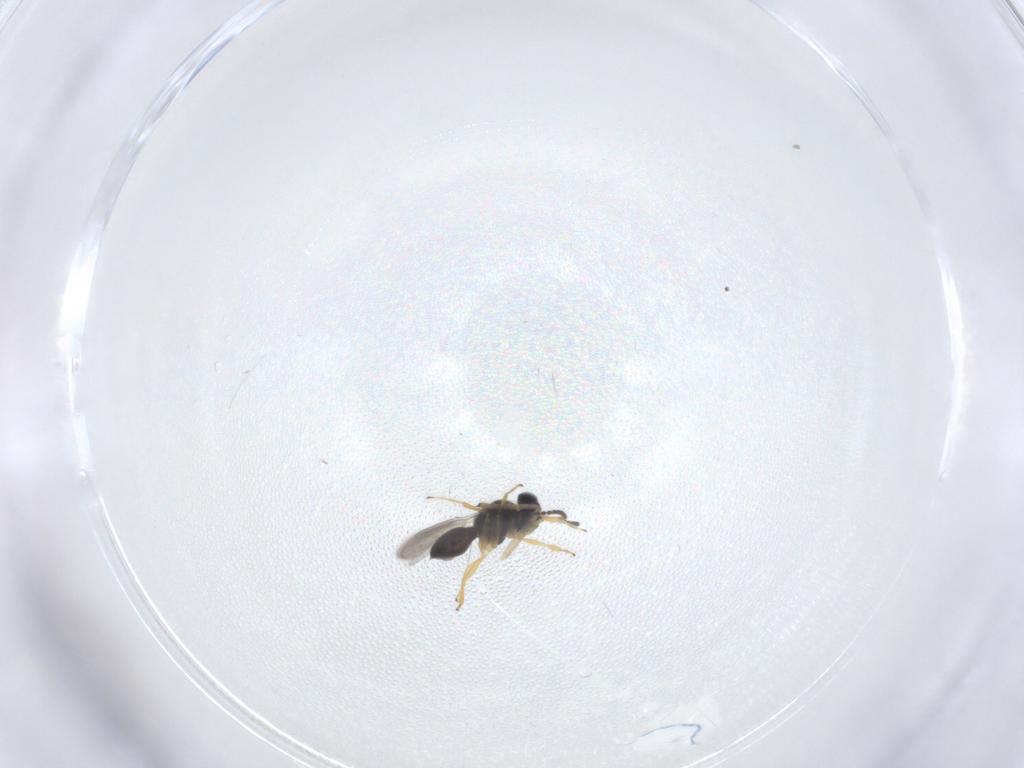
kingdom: Animalia
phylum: Arthropoda
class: Insecta
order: Hymenoptera
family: Scelionidae
